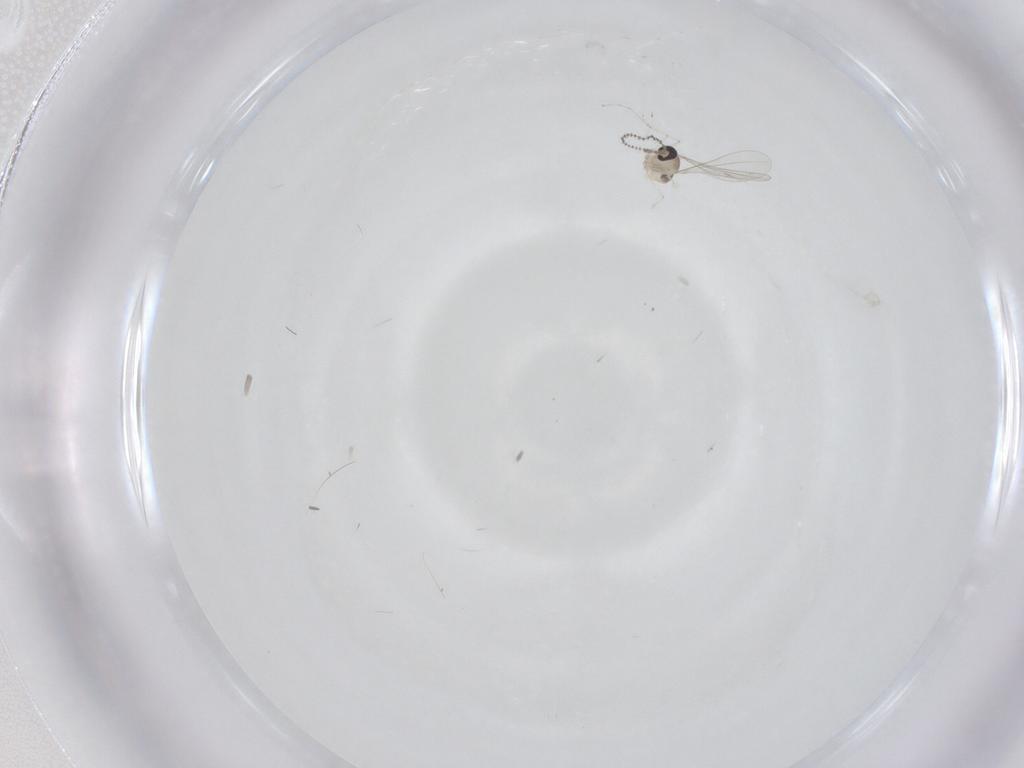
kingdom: Animalia
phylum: Arthropoda
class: Insecta
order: Diptera
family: Cecidomyiidae
